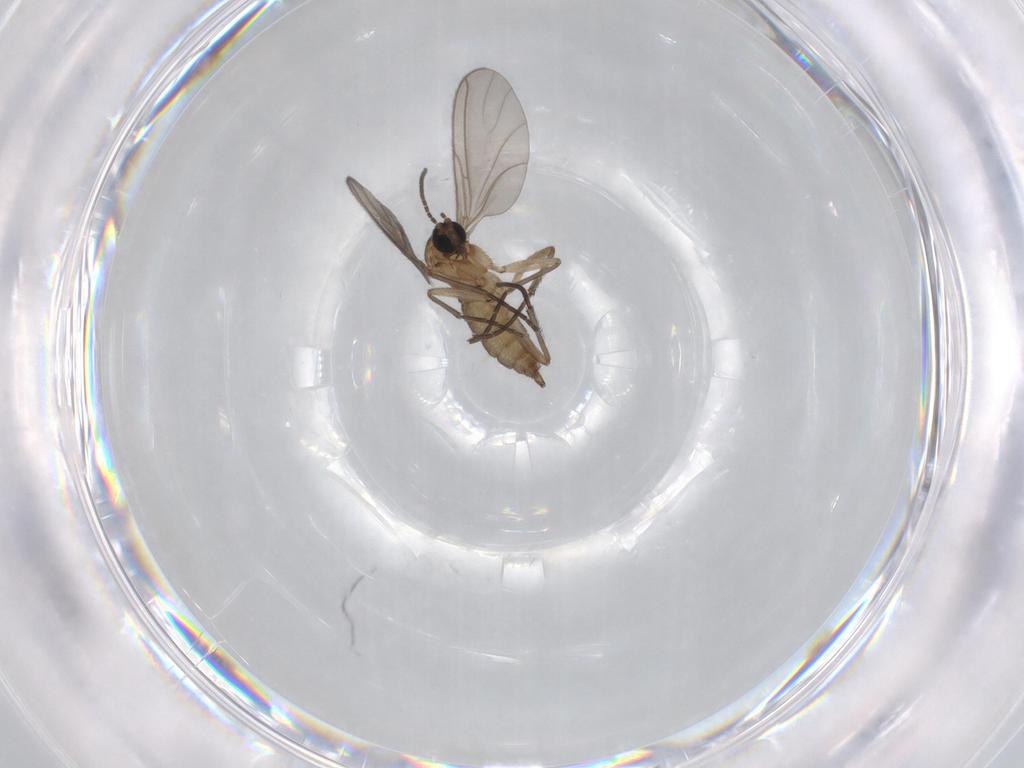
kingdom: Animalia
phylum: Arthropoda
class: Insecta
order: Diptera
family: Sciaridae
